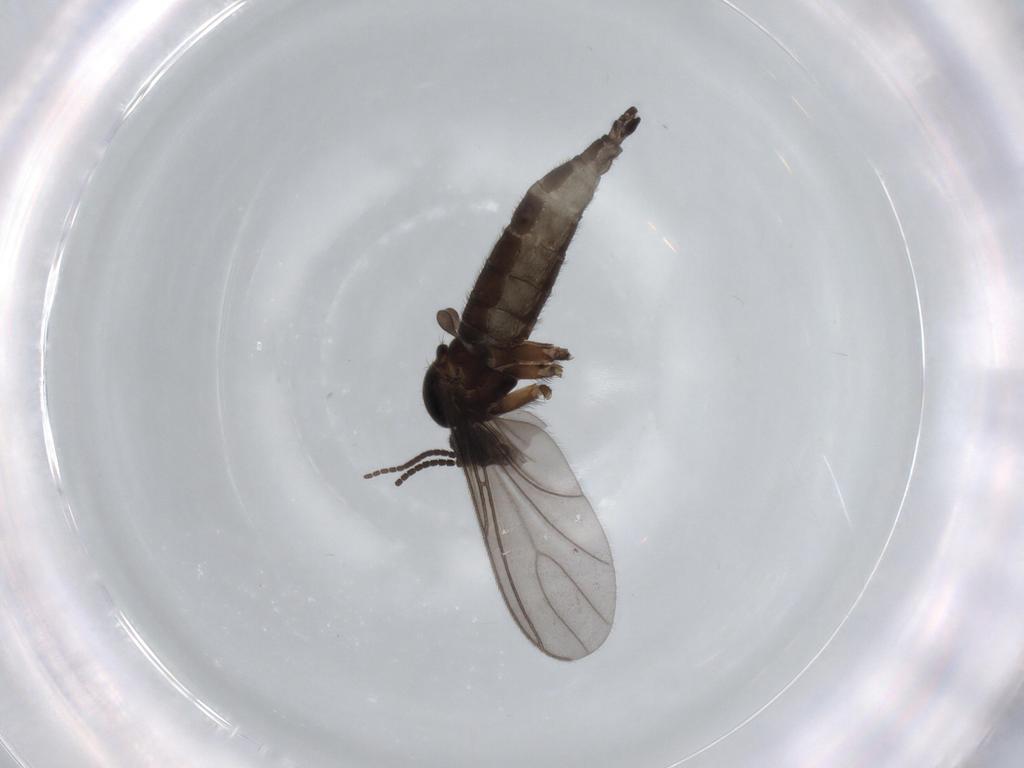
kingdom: Animalia
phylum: Arthropoda
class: Insecta
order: Diptera
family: Sciaridae
